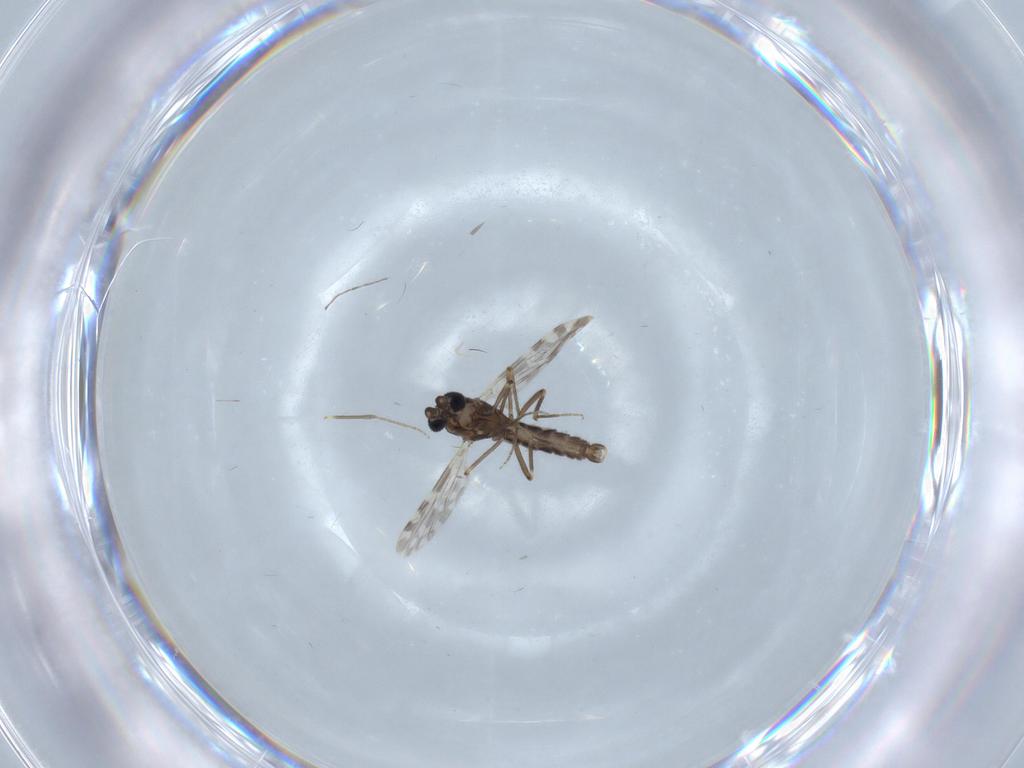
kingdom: Animalia
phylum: Arthropoda
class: Insecta
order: Diptera
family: Ceratopogonidae
